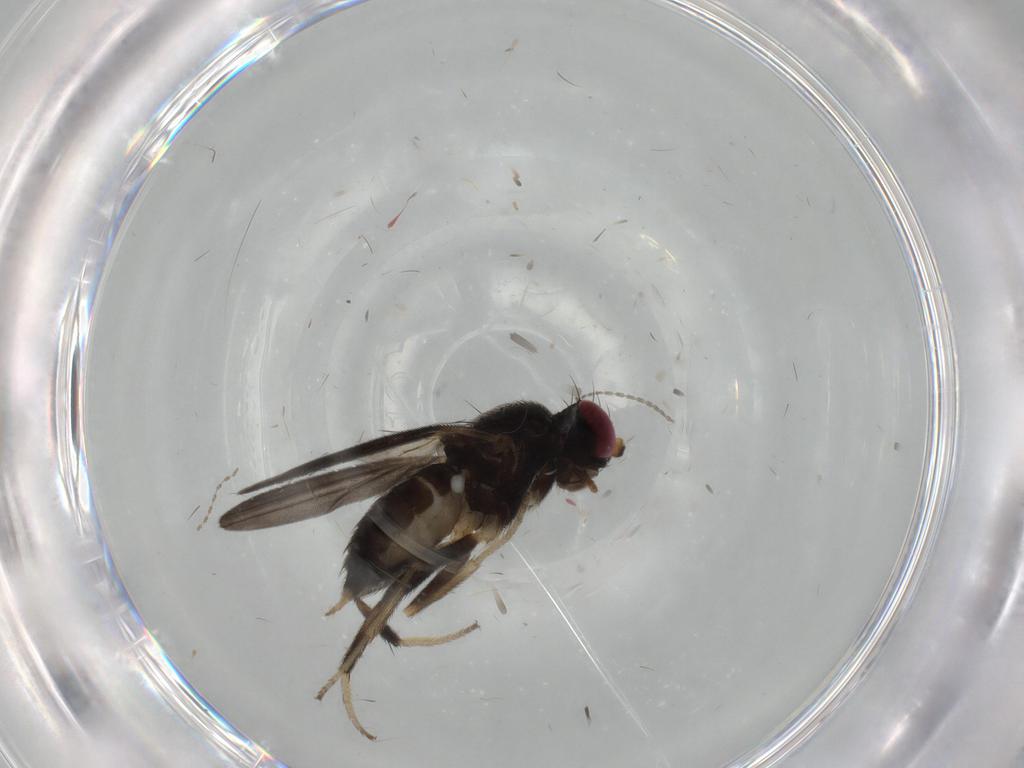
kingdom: Animalia
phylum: Arthropoda
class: Insecta
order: Diptera
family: Clusiidae
